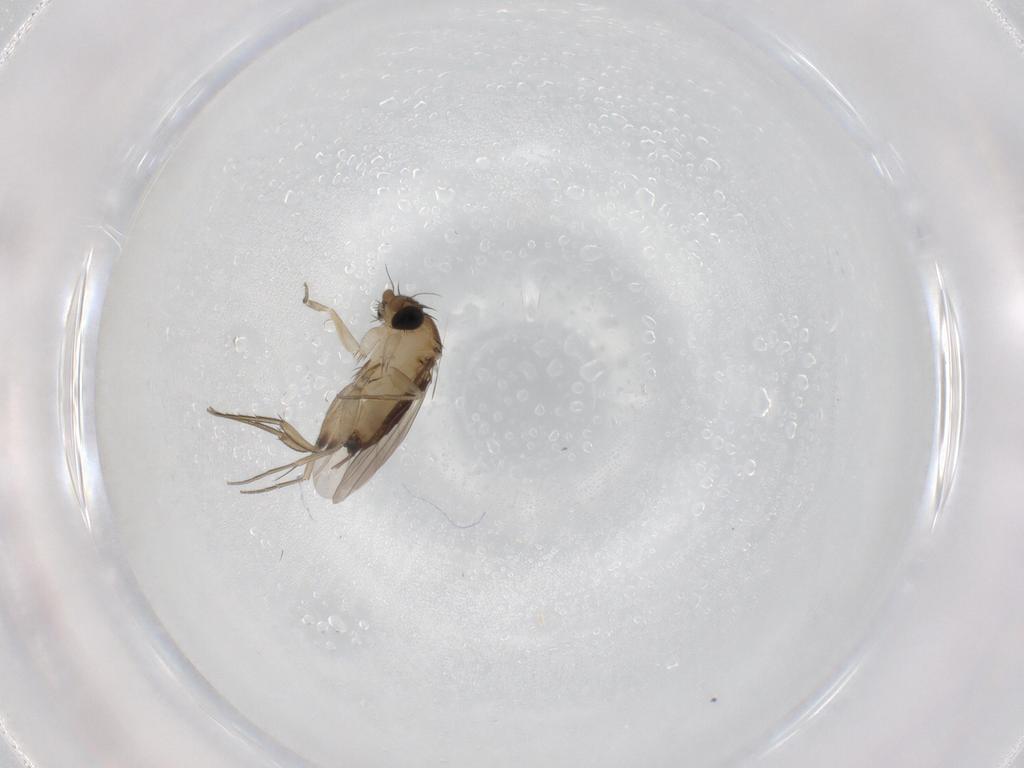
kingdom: Animalia
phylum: Arthropoda
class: Insecta
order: Diptera
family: Phoridae
